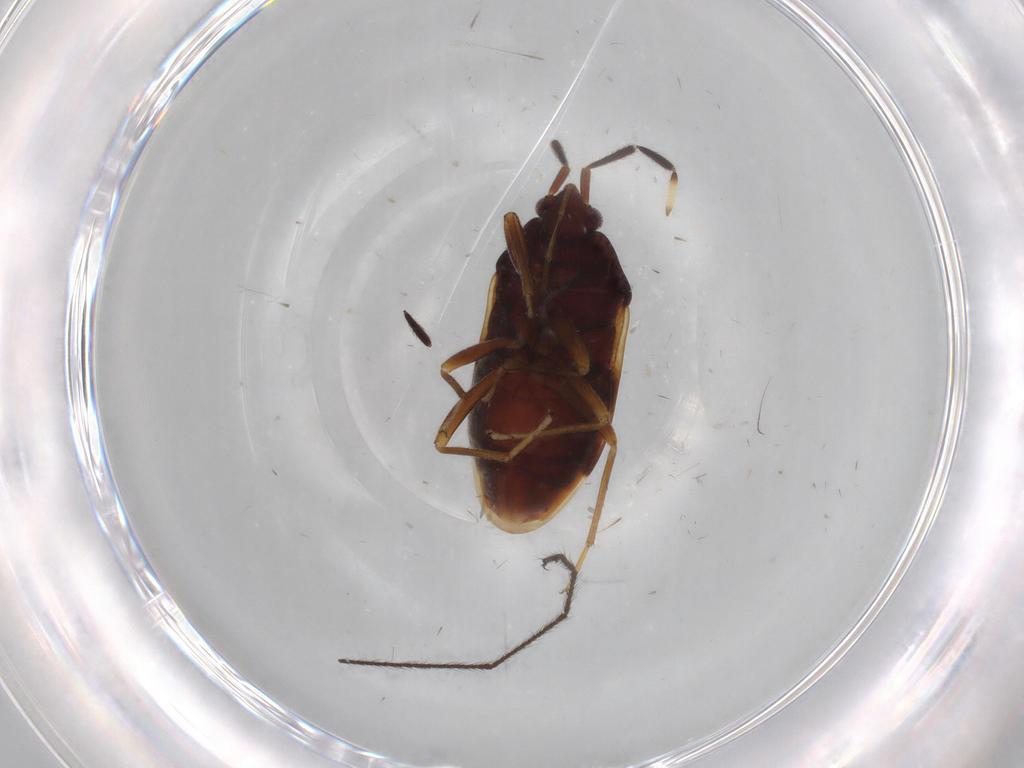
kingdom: Animalia
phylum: Arthropoda
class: Insecta
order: Hemiptera
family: Rhyparochromidae
